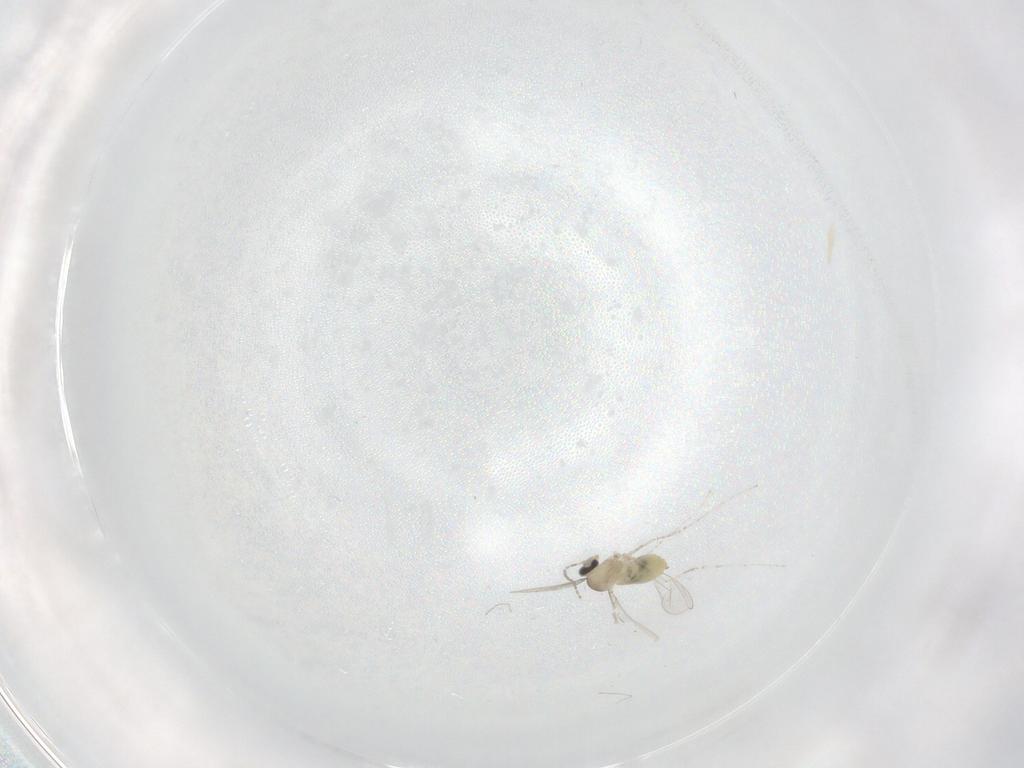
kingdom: Animalia
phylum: Arthropoda
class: Insecta
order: Diptera
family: Cecidomyiidae
